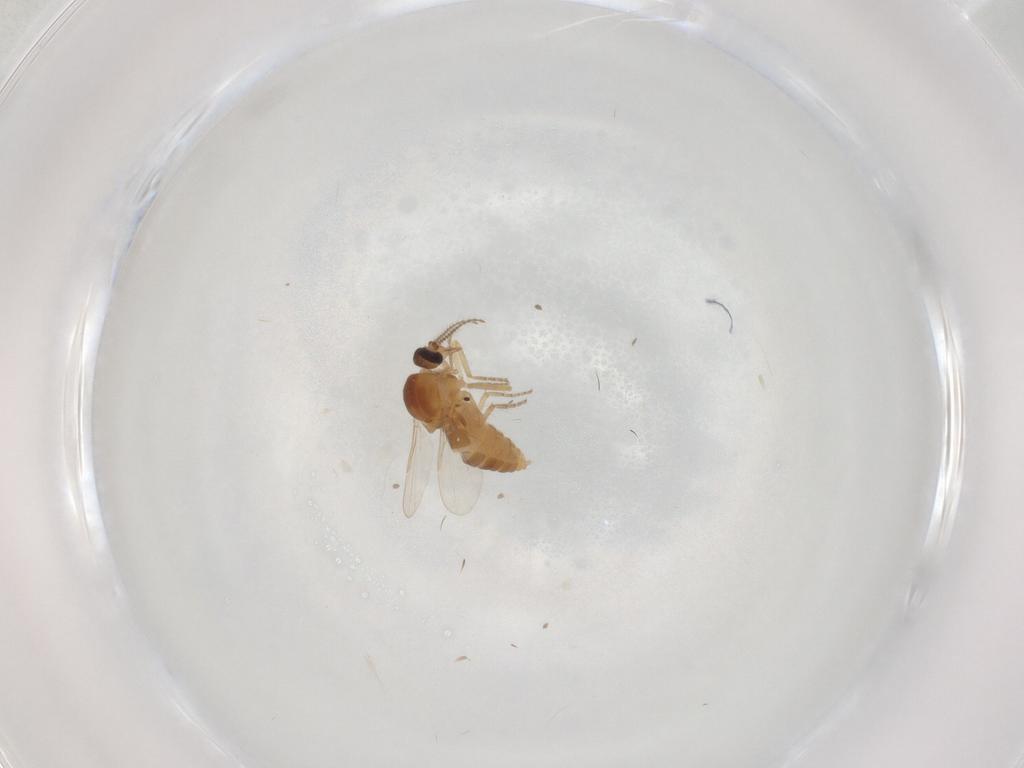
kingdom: Animalia
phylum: Arthropoda
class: Insecta
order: Diptera
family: Ceratopogonidae
